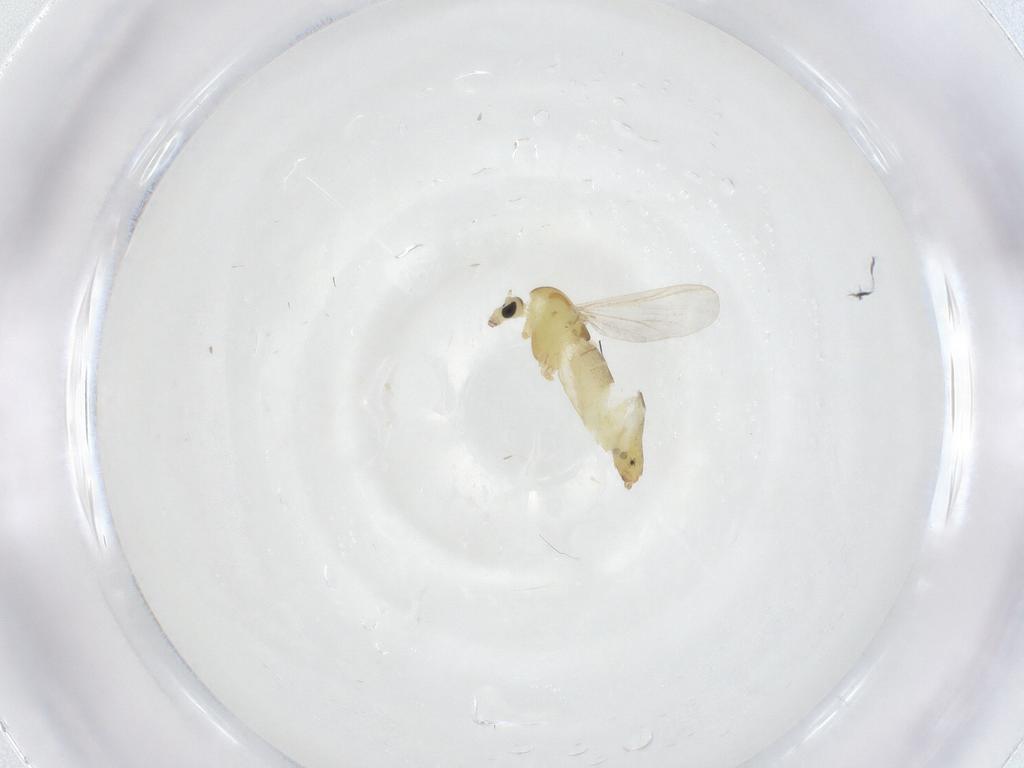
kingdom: Animalia
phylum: Arthropoda
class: Insecta
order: Diptera
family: Chironomidae
